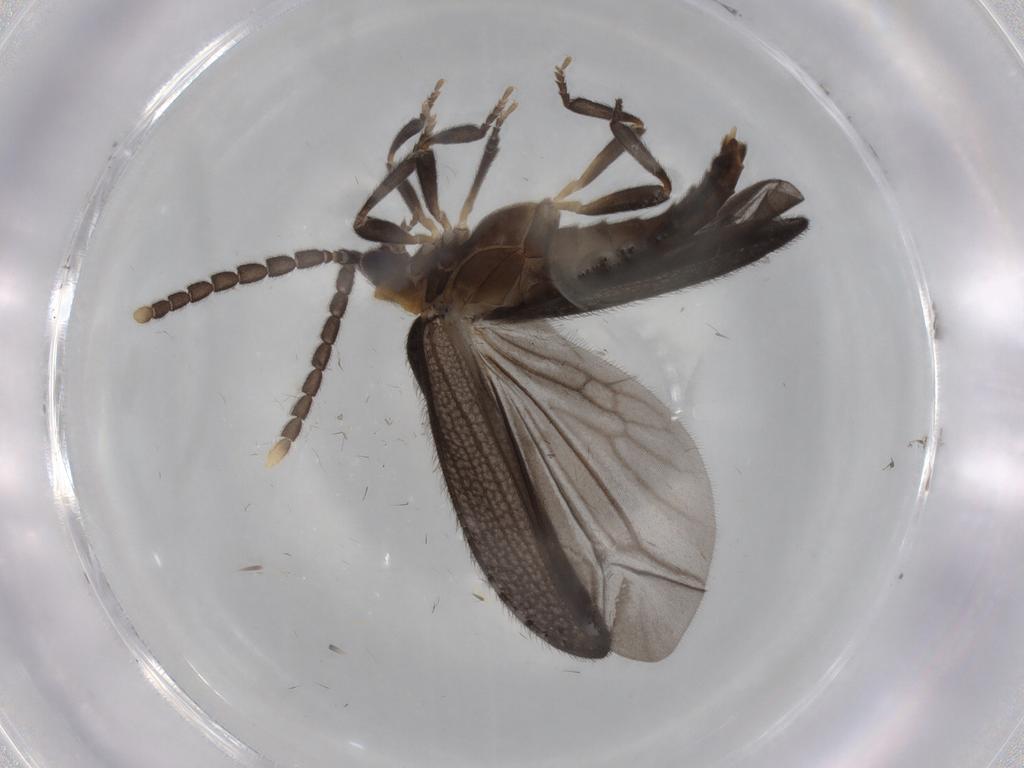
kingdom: Animalia
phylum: Arthropoda
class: Insecta
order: Coleoptera
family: Lycidae
